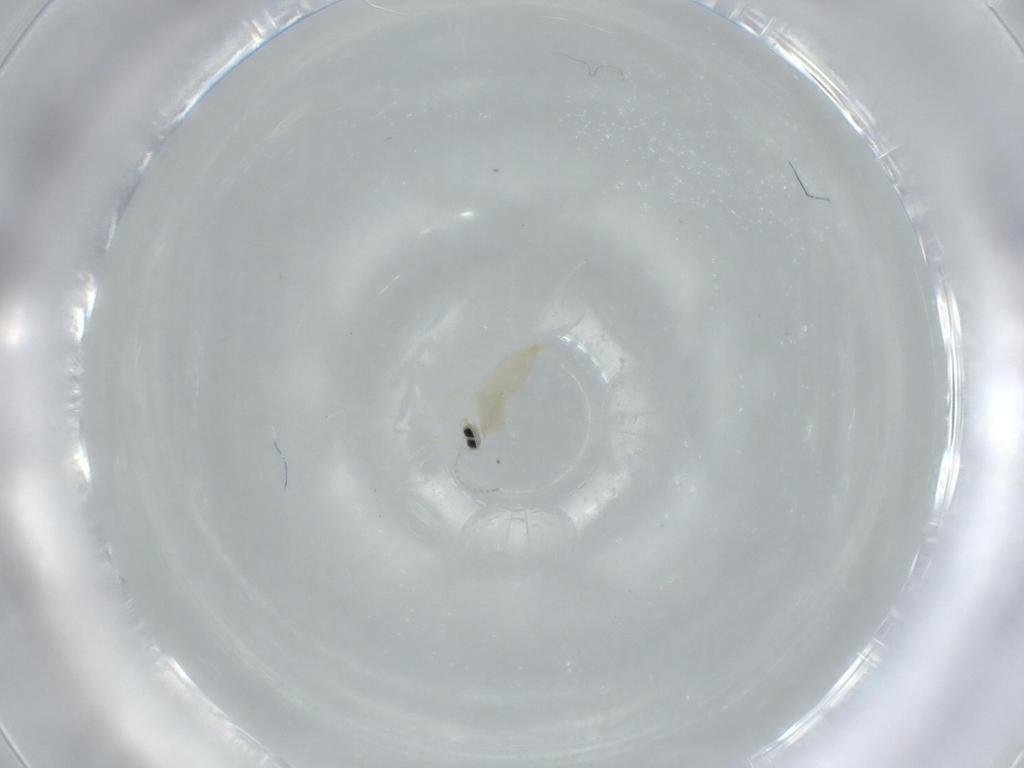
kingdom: Animalia
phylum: Arthropoda
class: Insecta
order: Diptera
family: Cecidomyiidae
